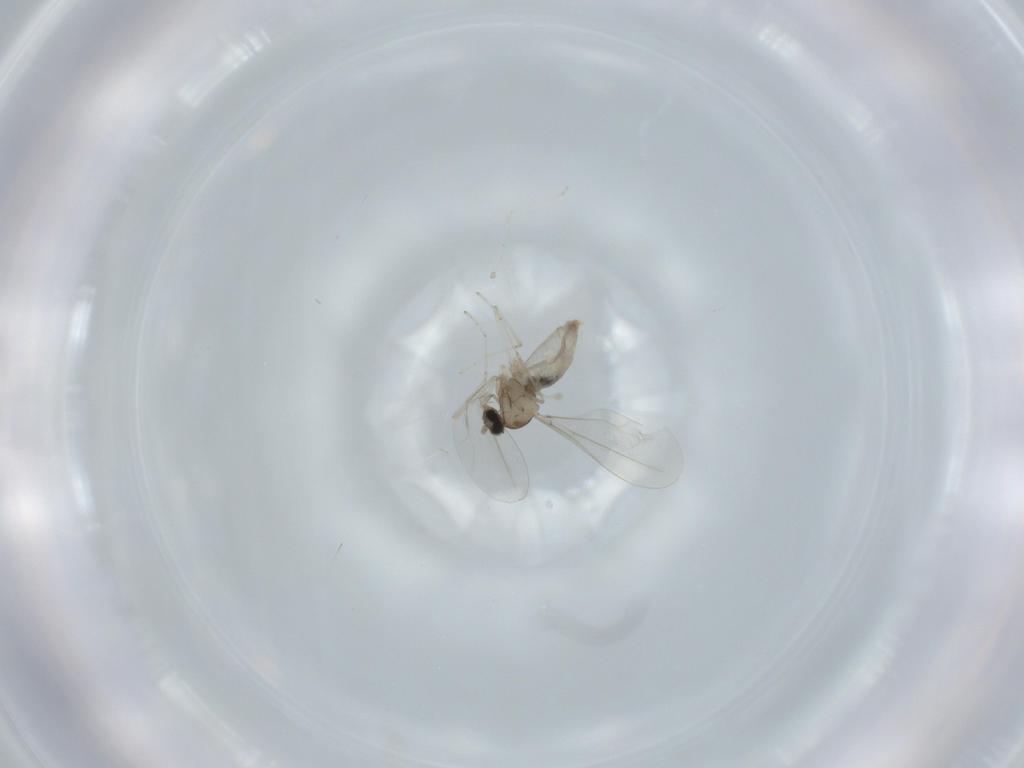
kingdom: Animalia
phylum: Arthropoda
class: Insecta
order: Diptera
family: Cecidomyiidae
